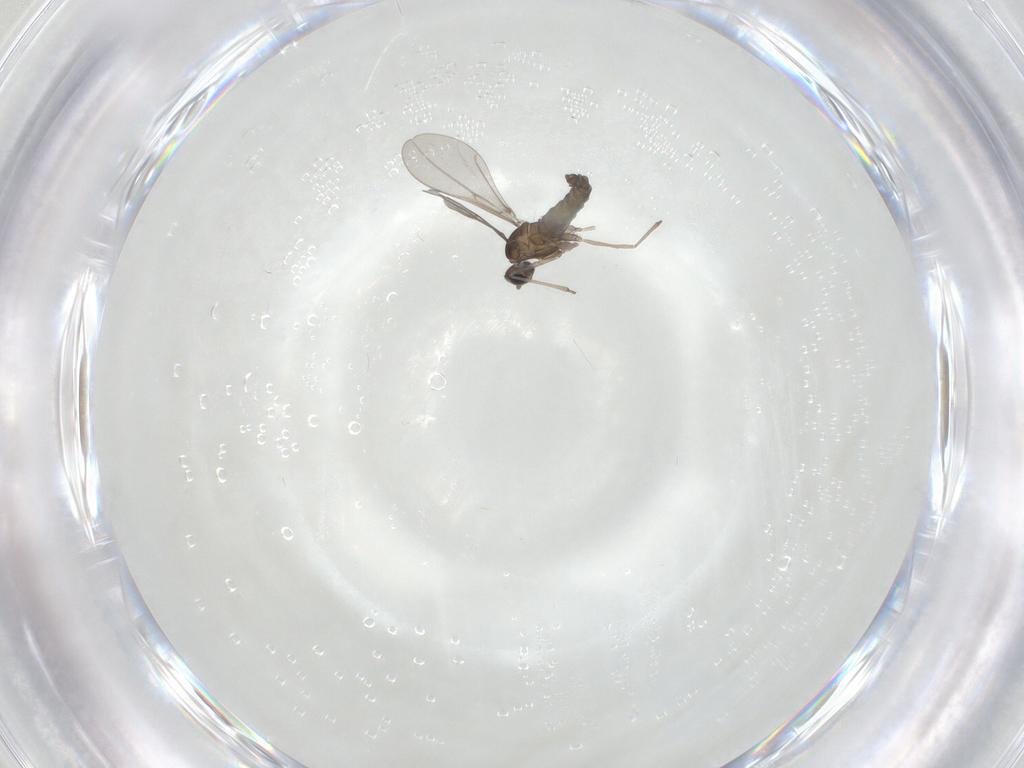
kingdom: Animalia
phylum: Arthropoda
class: Insecta
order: Diptera
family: Cecidomyiidae
